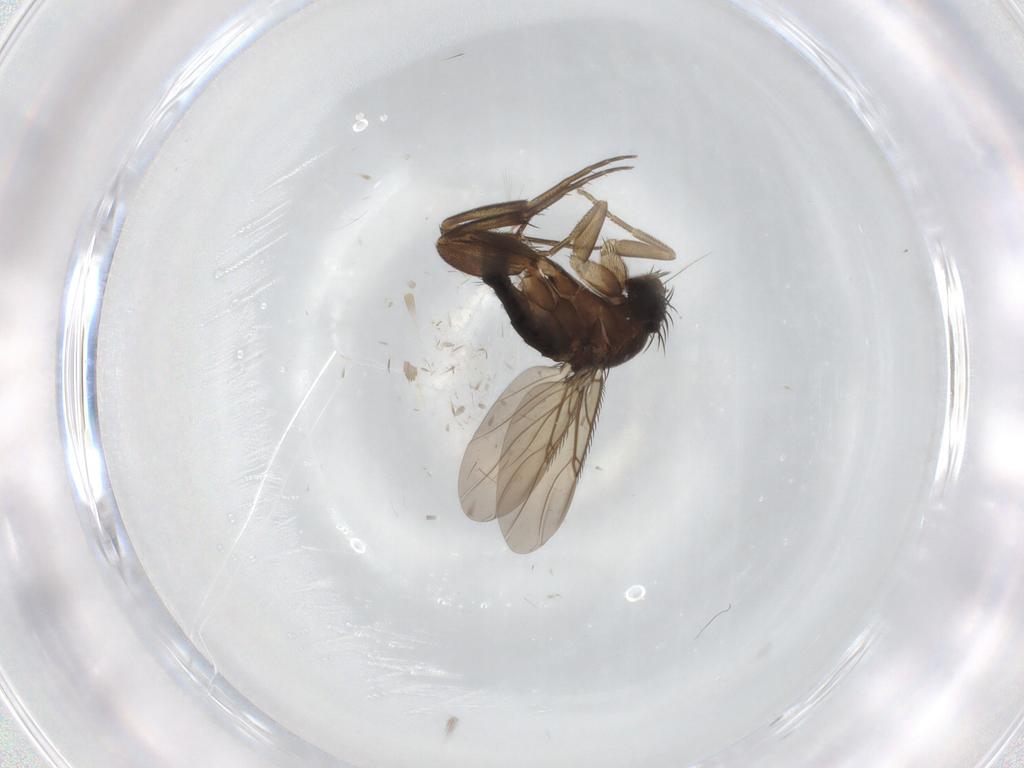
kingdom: Animalia
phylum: Arthropoda
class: Insecta
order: Diptera
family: Phoridae
